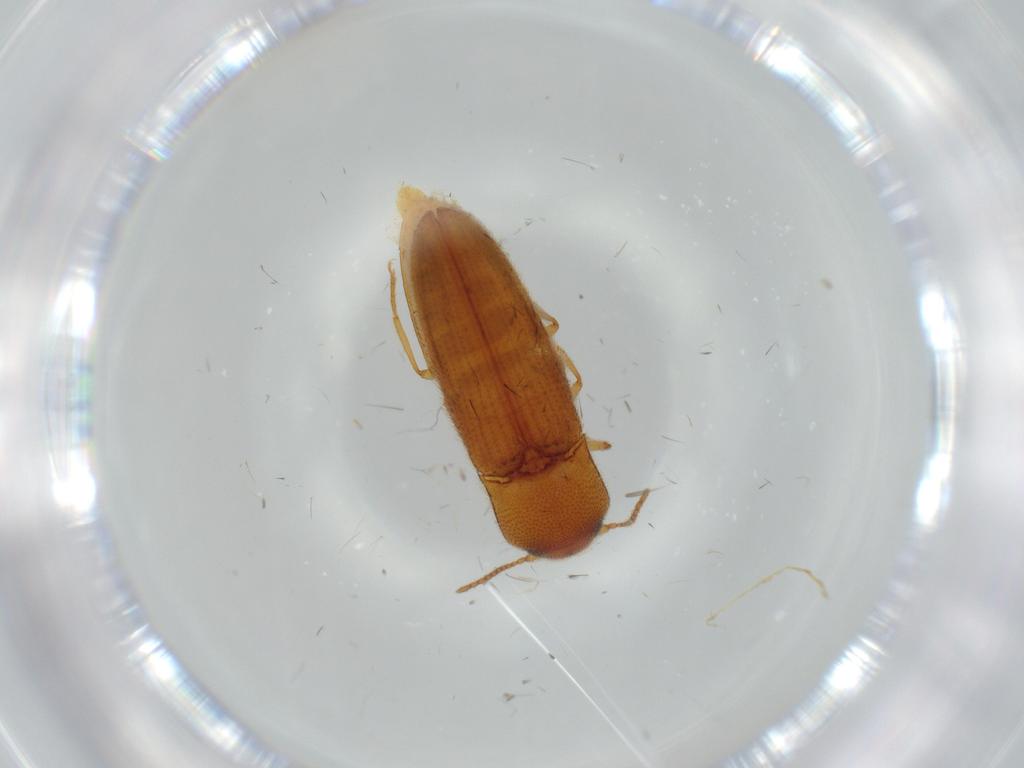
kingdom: Animalia
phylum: Arthropoda
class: Insecta
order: Coleoptera
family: Elateridae
